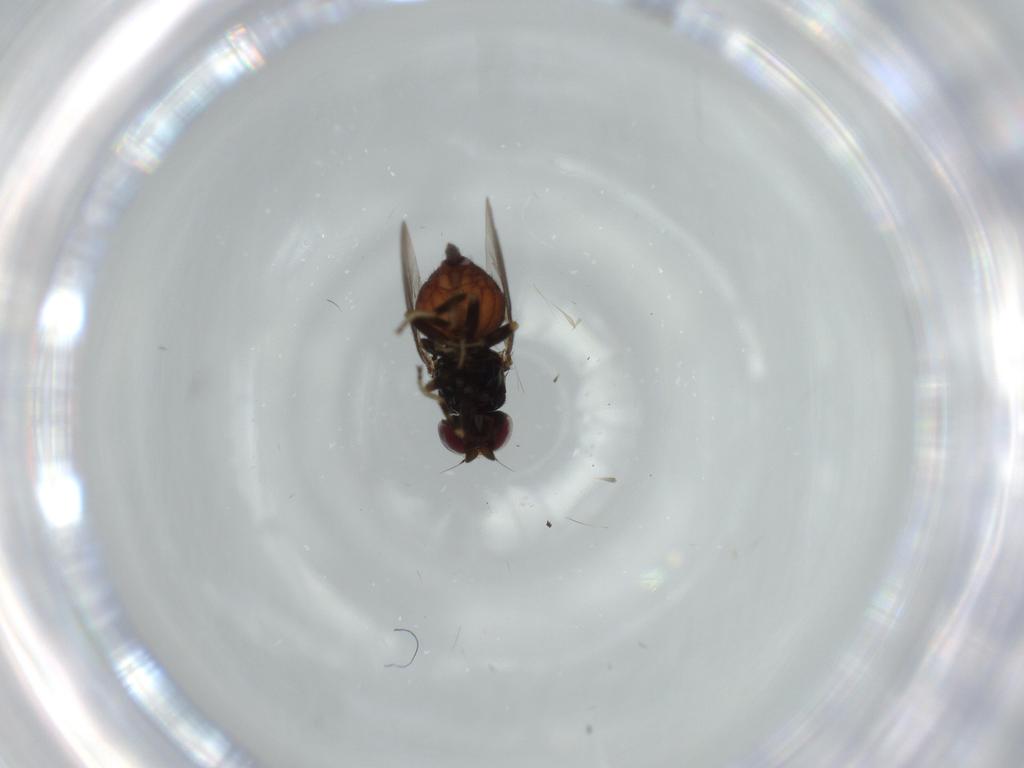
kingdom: Animalia
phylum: Arthropoda
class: Insecta
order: Diptera
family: Chloropidae
